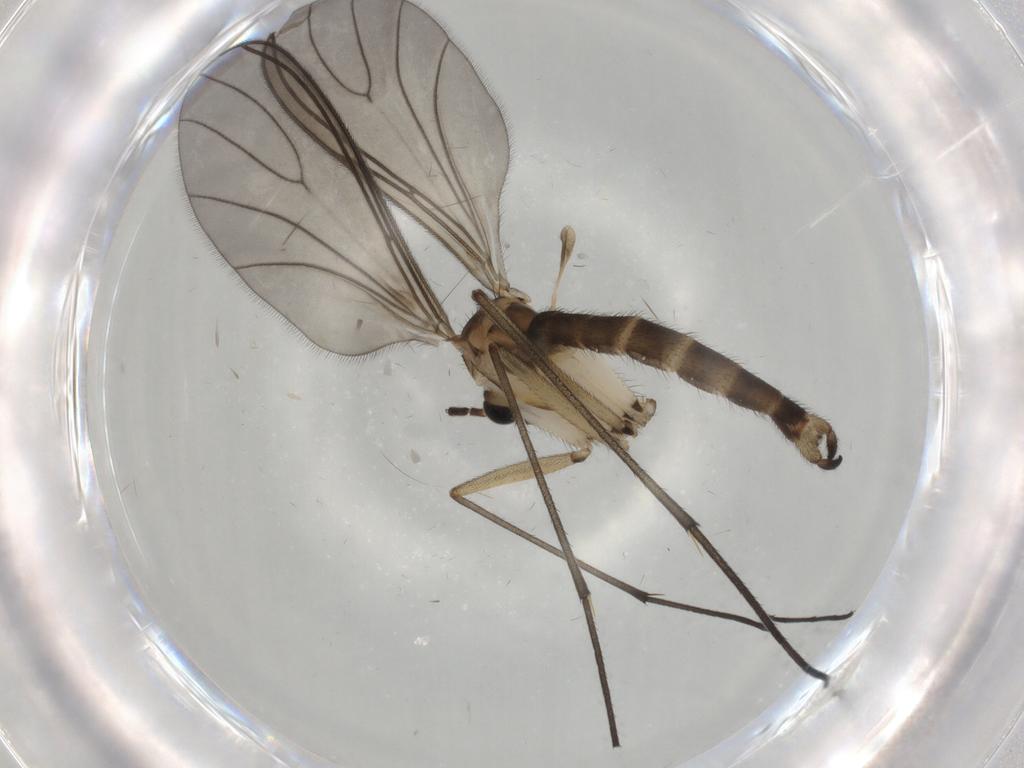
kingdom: Animalia
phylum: Arthropoda
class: Insecta
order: Diptera
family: Sciaridae
